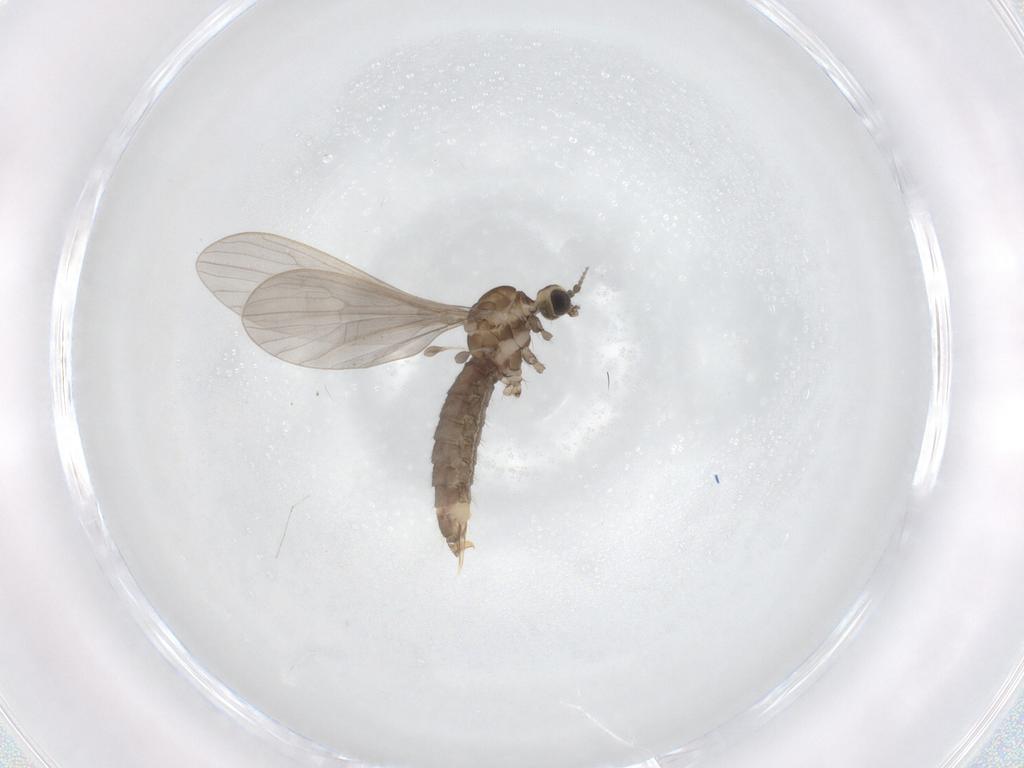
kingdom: Animalia
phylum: Arthropoda
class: Insecta
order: Diptera
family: Limoniidae
